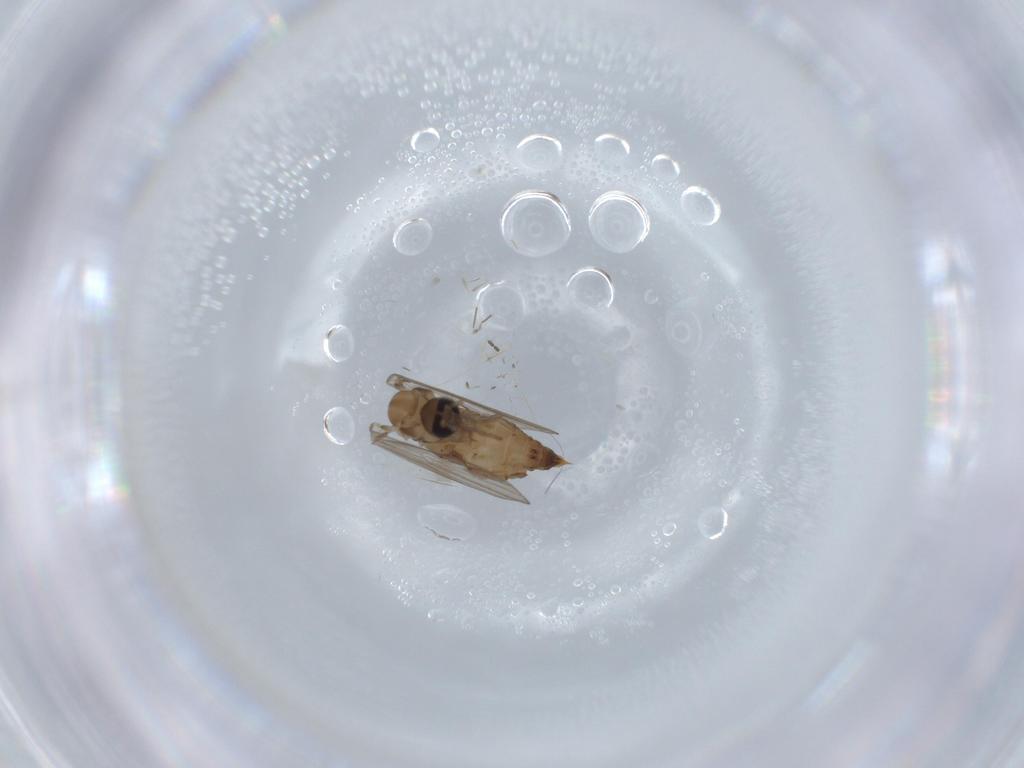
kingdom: Animalia
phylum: Arthropoda
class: Insecta
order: Diptera
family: Psychodidae
